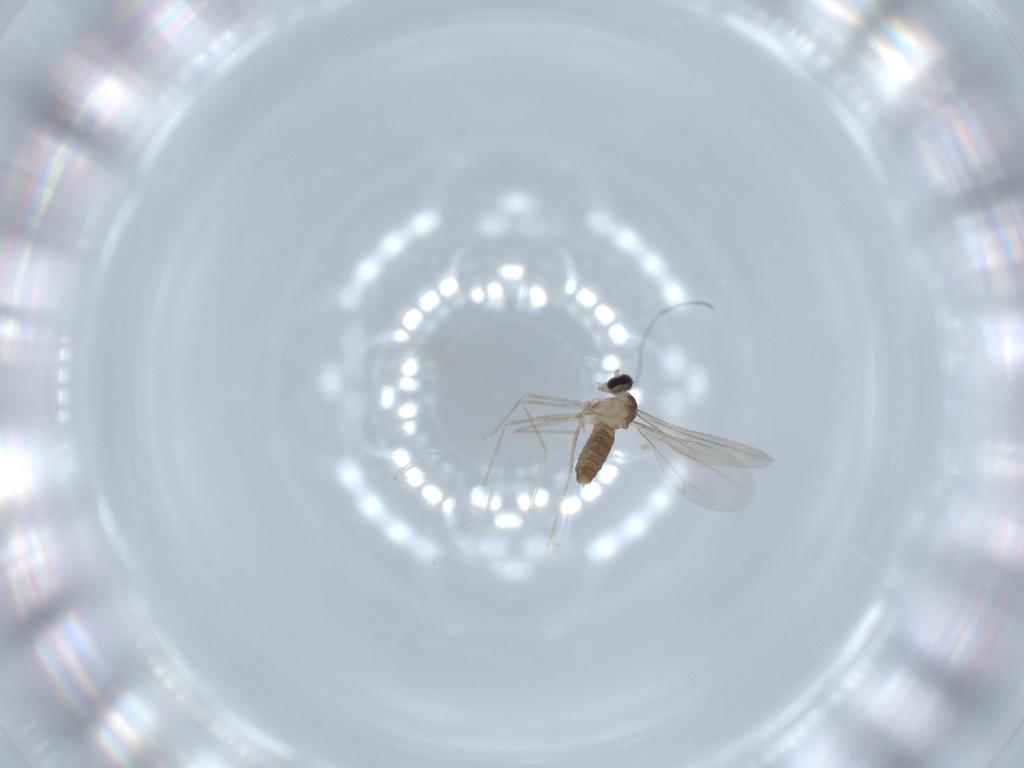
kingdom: Animalia
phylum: Arthropoda
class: Insecta
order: Diptera
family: Cecidomyiidae
